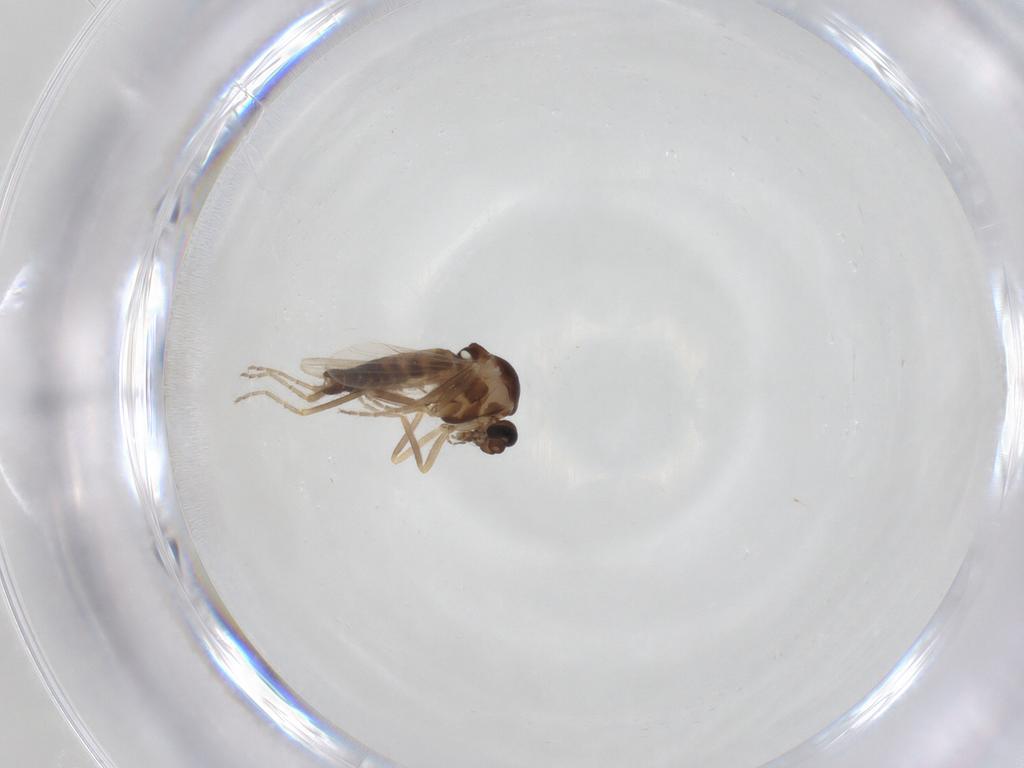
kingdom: Animalia
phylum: Arthropoda
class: Insecta
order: Diptera
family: Ceratopogonidae
